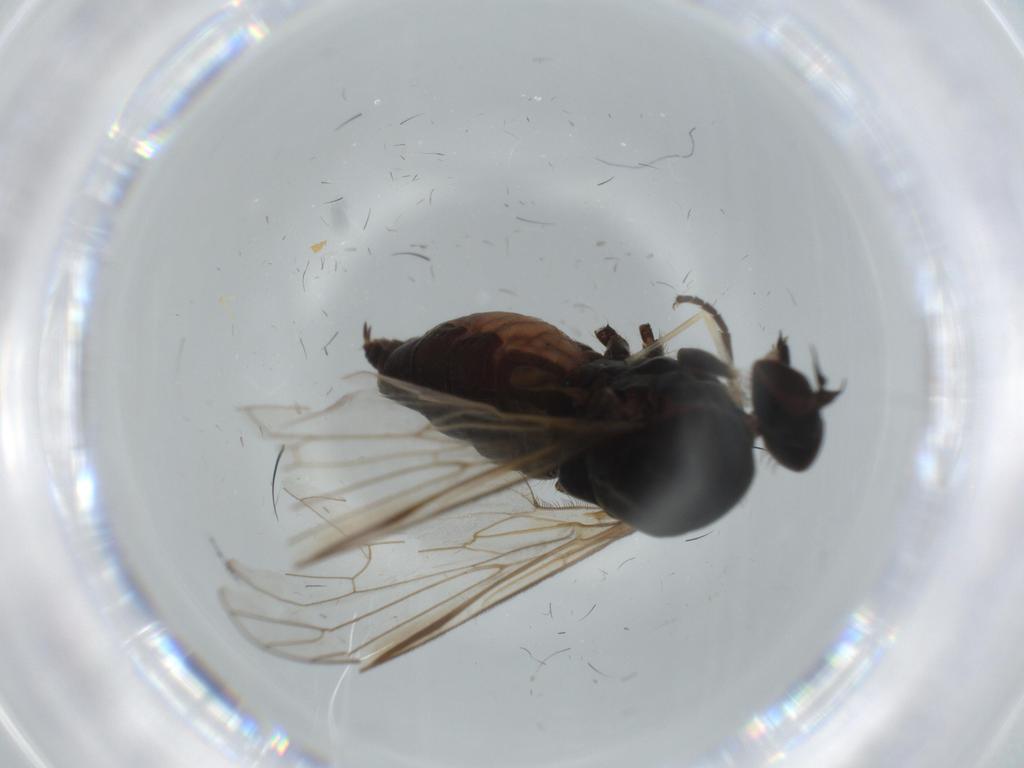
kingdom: Animalia
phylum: Arthropoda
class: Insecta
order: Diptera
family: Empididae
